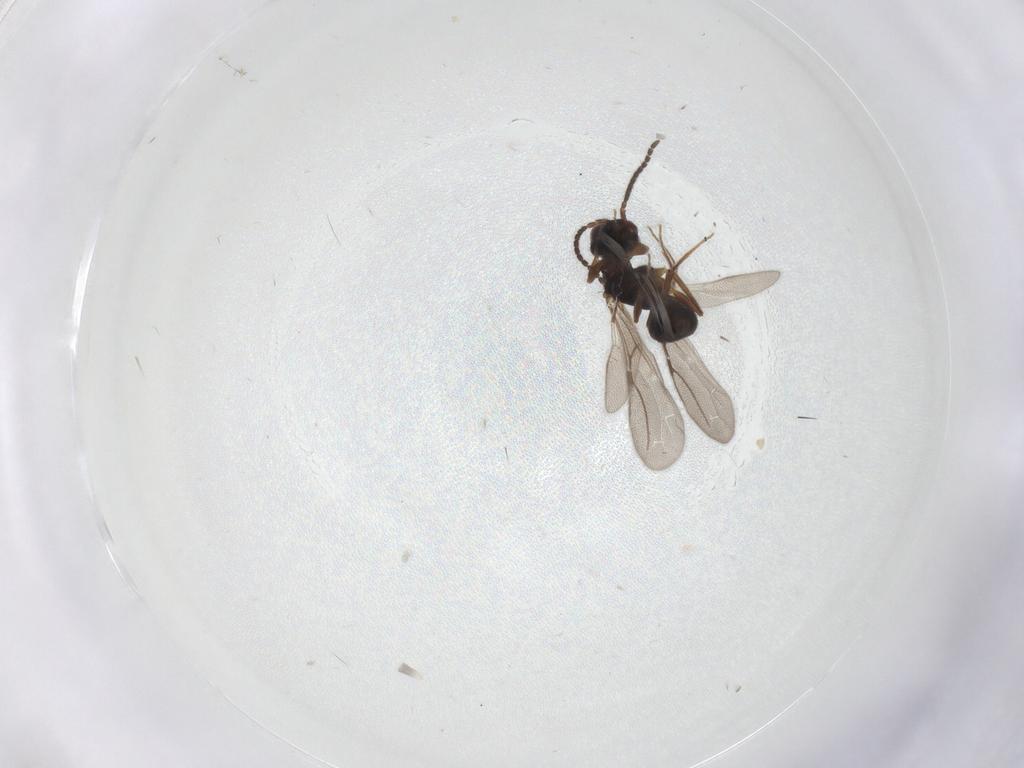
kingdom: Animalia
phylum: Arthropoda
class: Insecta
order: Hymenoptera
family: Bethylidae
